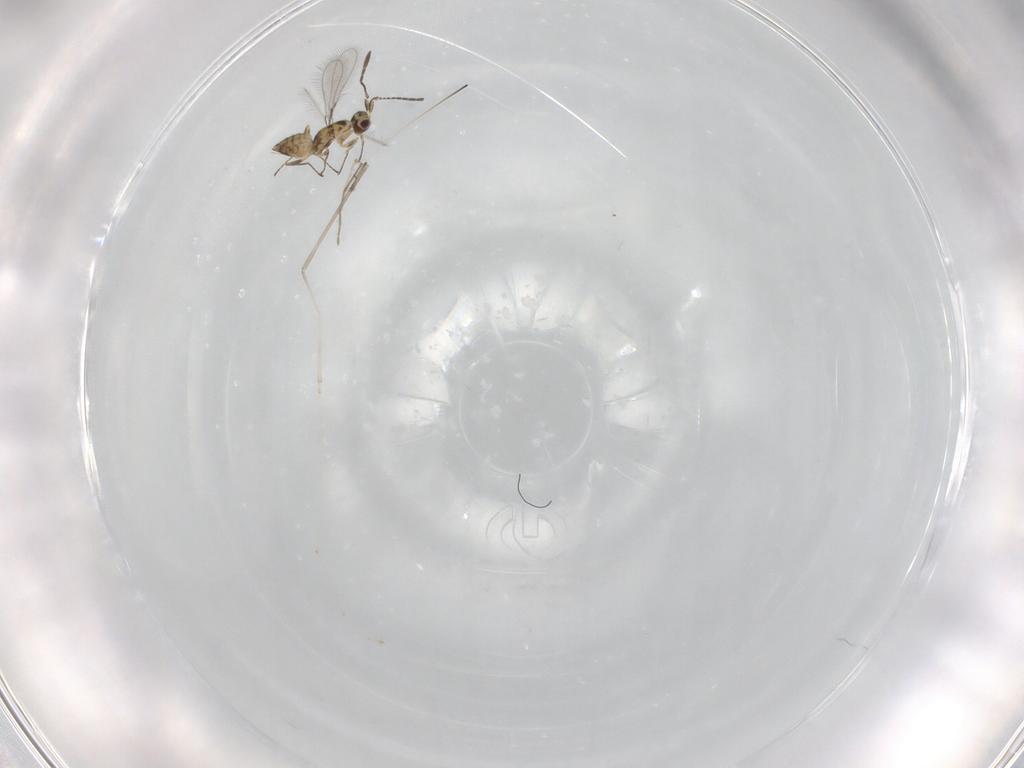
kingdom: Animalia
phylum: Arthropoda
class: Insecta
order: Hymenoptera
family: Mymaridae
